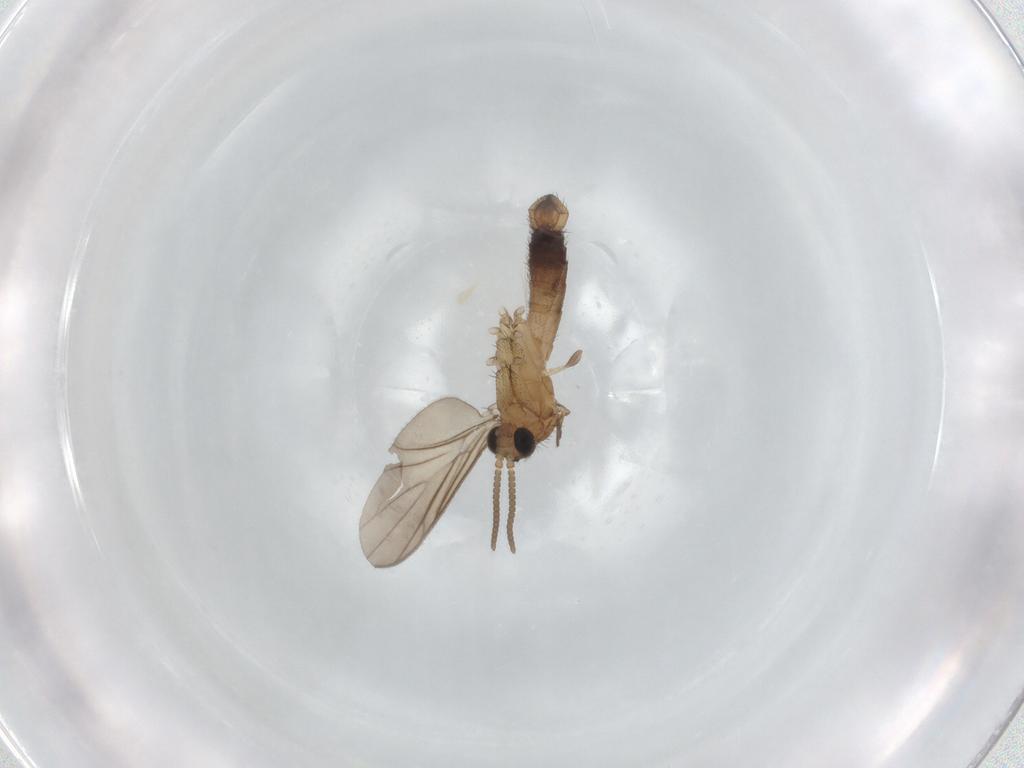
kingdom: Animalia
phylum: Arthropoda
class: Insecta
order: Diptera
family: Keroplatidae
